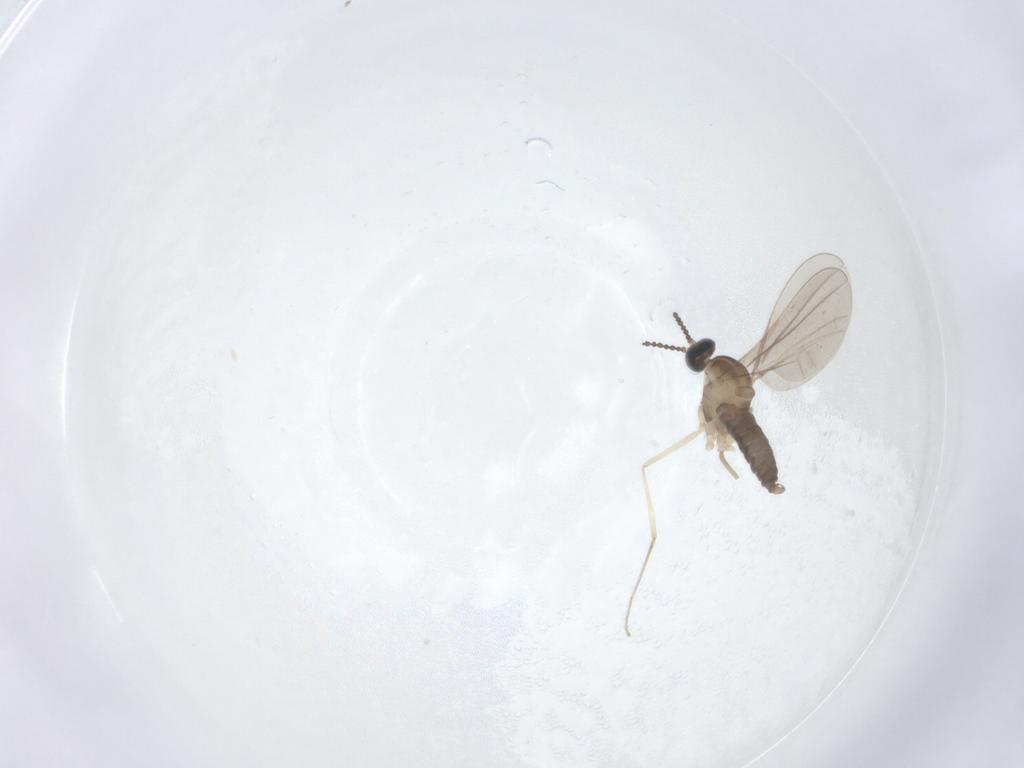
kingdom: Animalia
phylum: Arthropoda
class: Insecta
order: Diptera
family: Cecidomyiidae
